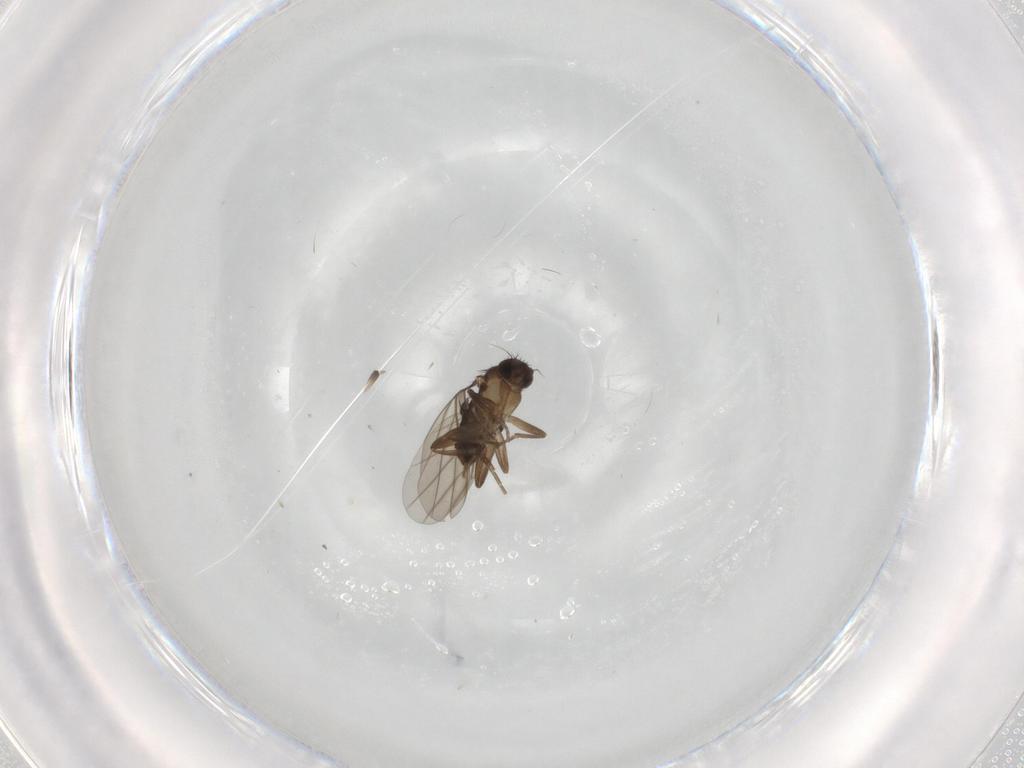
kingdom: Animalia
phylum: Arthropoda
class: Insecta
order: Diptera
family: Phoridae
